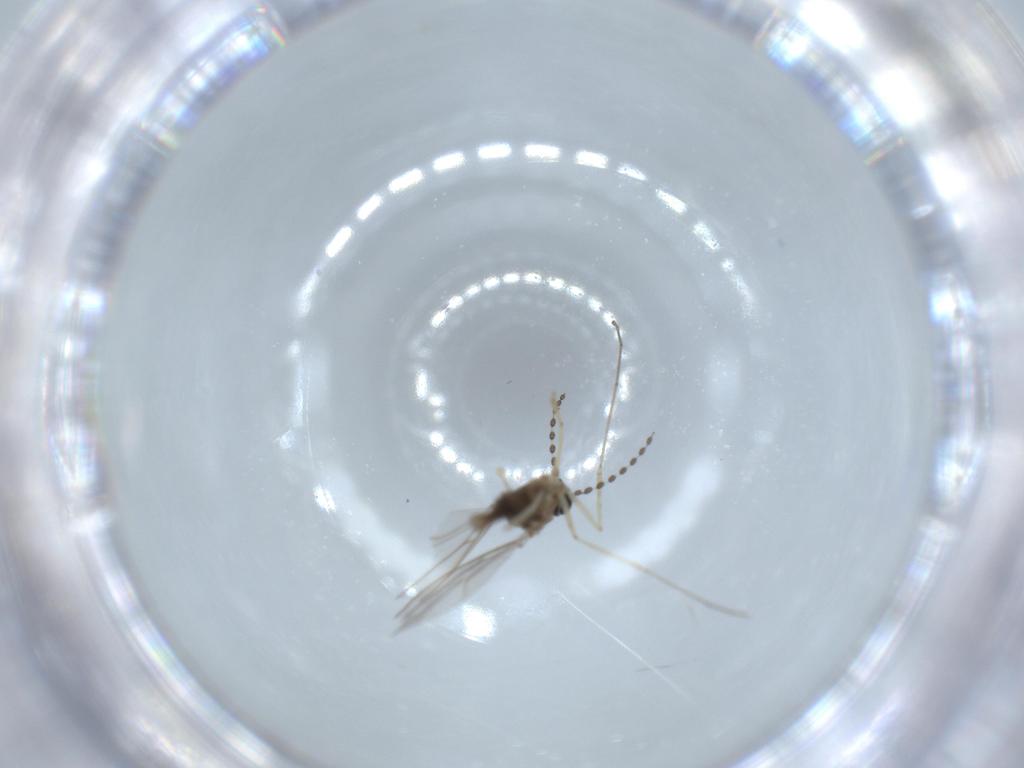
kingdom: Animalia
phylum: Arthropoda
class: Insecta
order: Diptera
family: Cecidomyiidae
